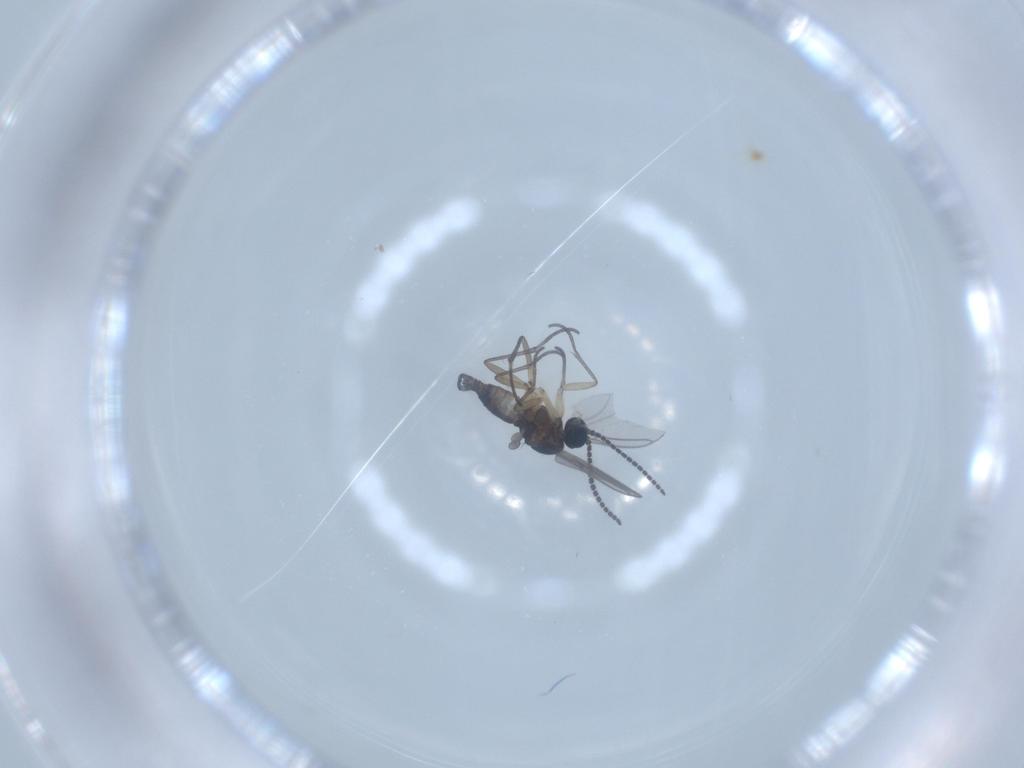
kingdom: Animalia
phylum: Arthropoda
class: Insecta
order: Diptera
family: Sciaridae
